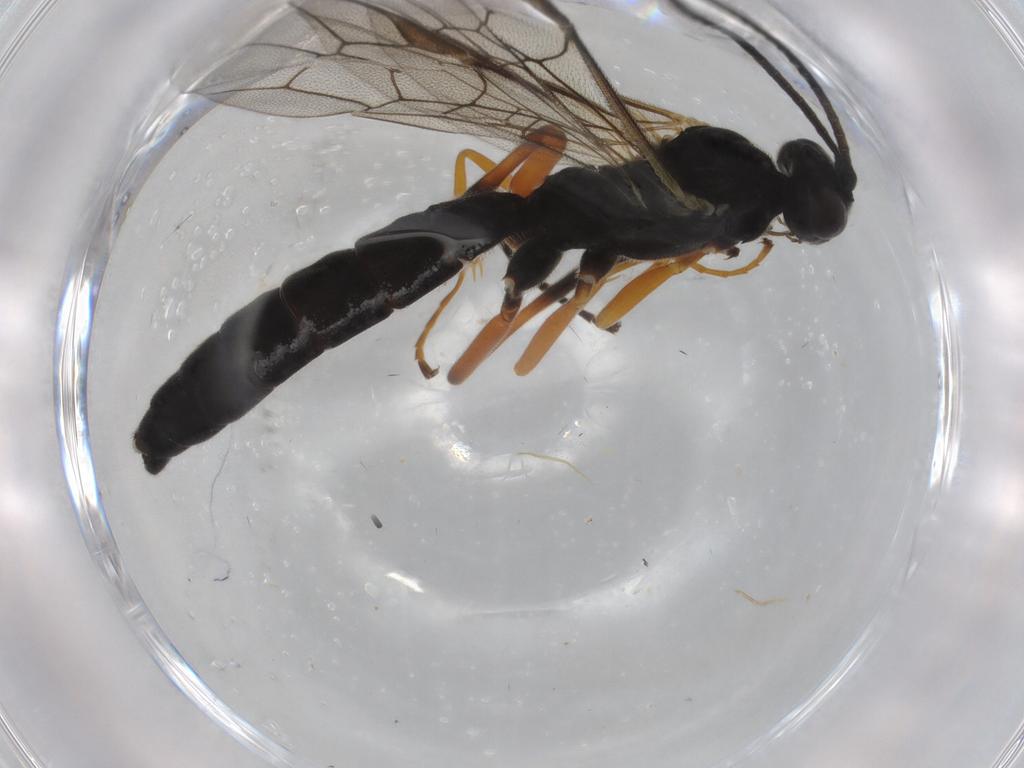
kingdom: Animalia
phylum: Arthropoda
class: Insecta
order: Hymenoptera
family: Ichneumonidae
